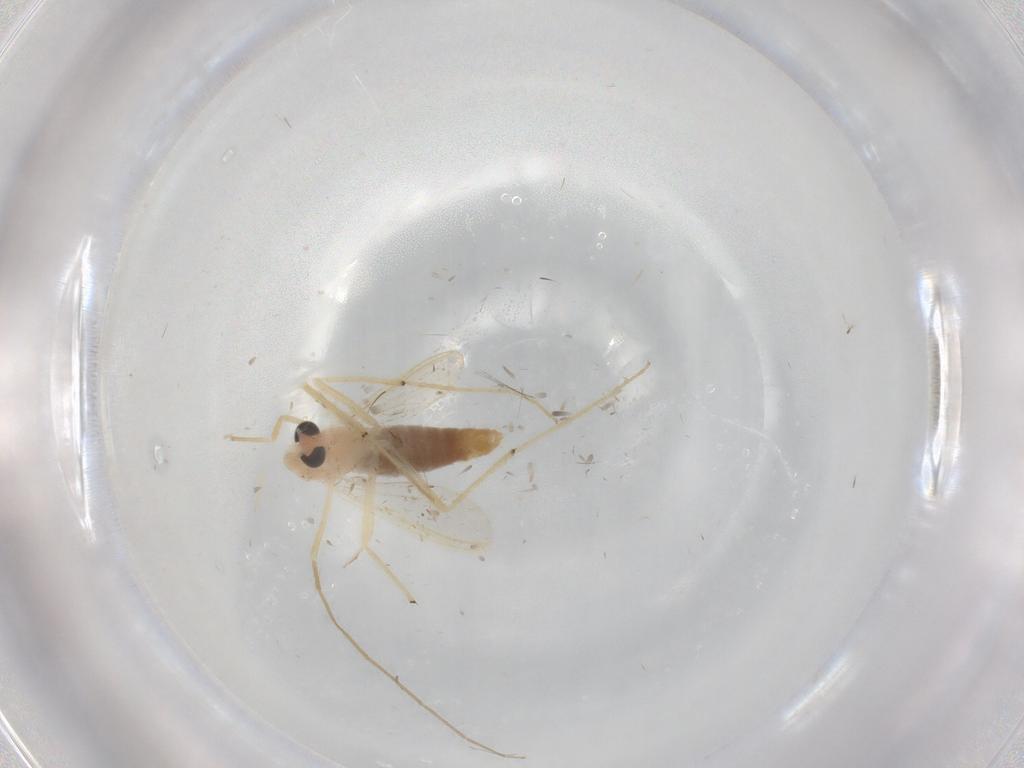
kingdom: Animalia
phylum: Arthropoda
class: Insecta
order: Diptera
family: Chironomidae
